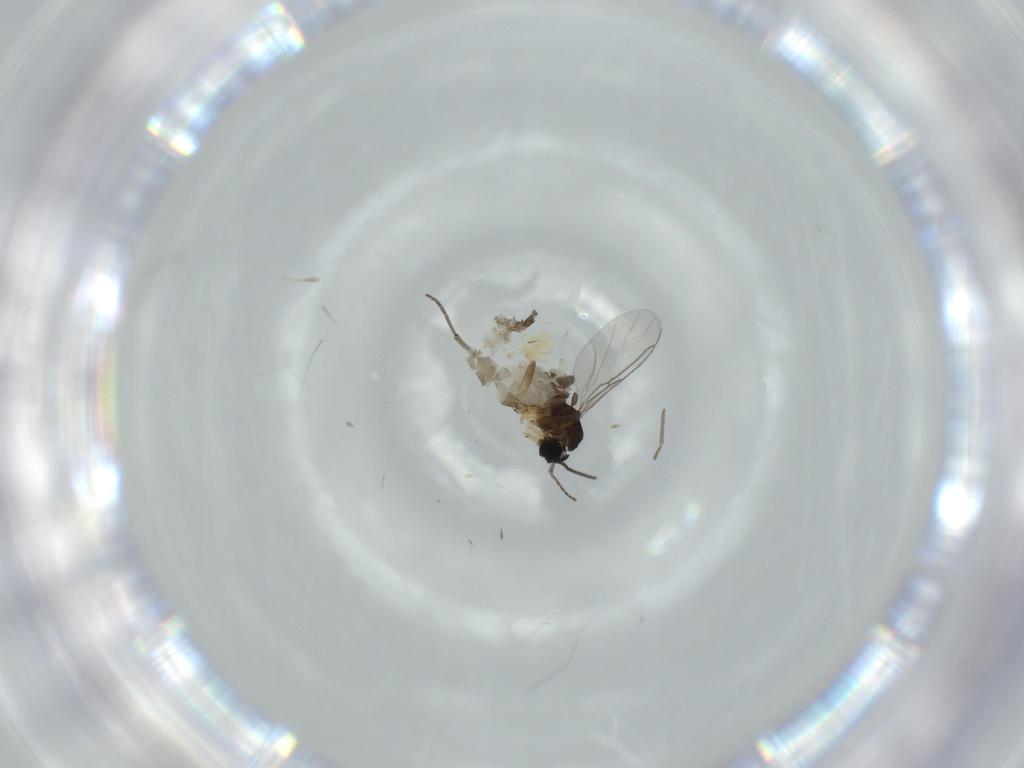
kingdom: Animalia
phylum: Arthropoda
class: Insecta
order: Diptera
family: Sciaridae
